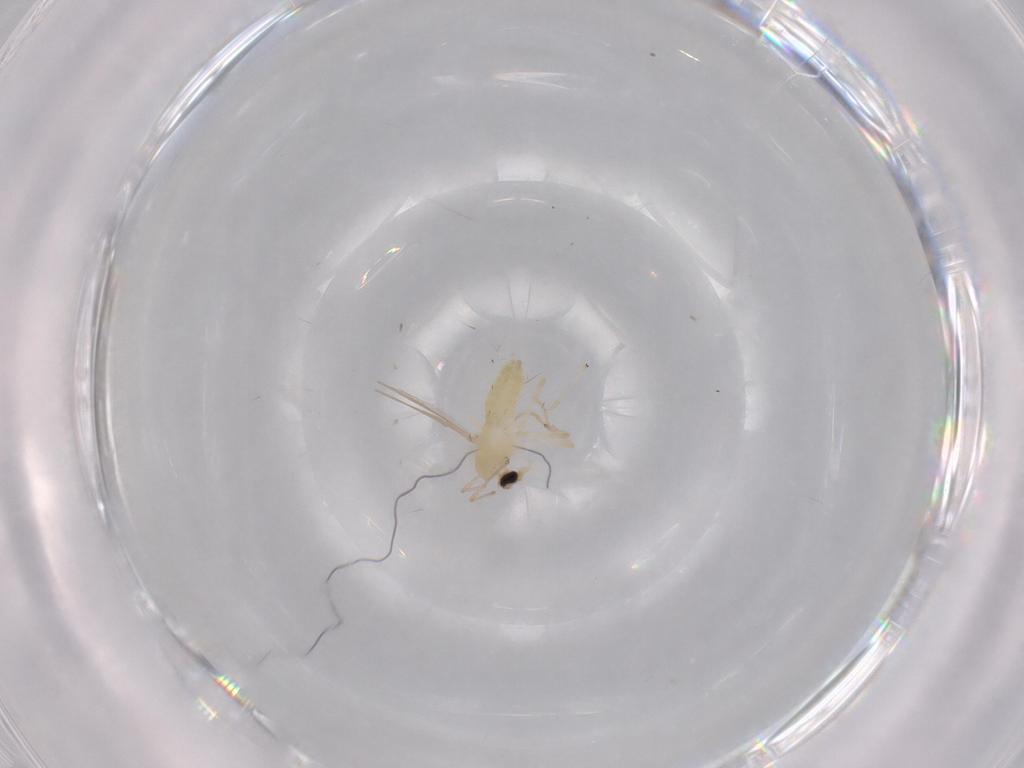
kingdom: Animalia
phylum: Arthropoda
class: Insecta
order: Diptera
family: Chironomidae
